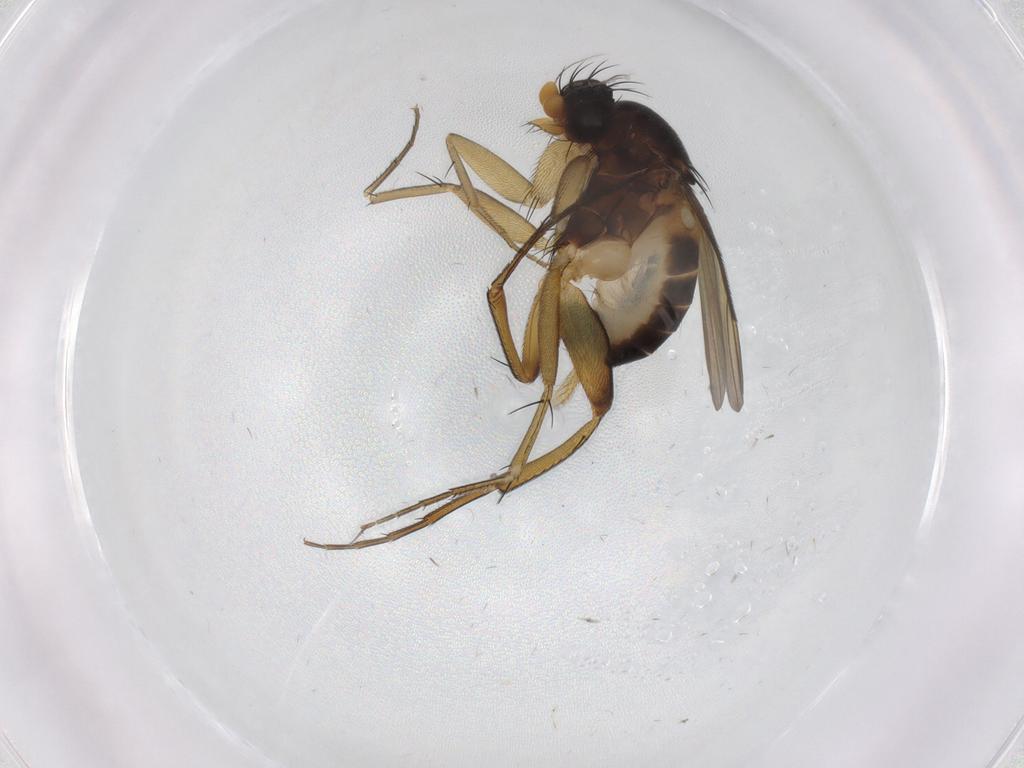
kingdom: Animalia
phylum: Arthropoda
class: Insecta
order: Diptera
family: Phoridae
